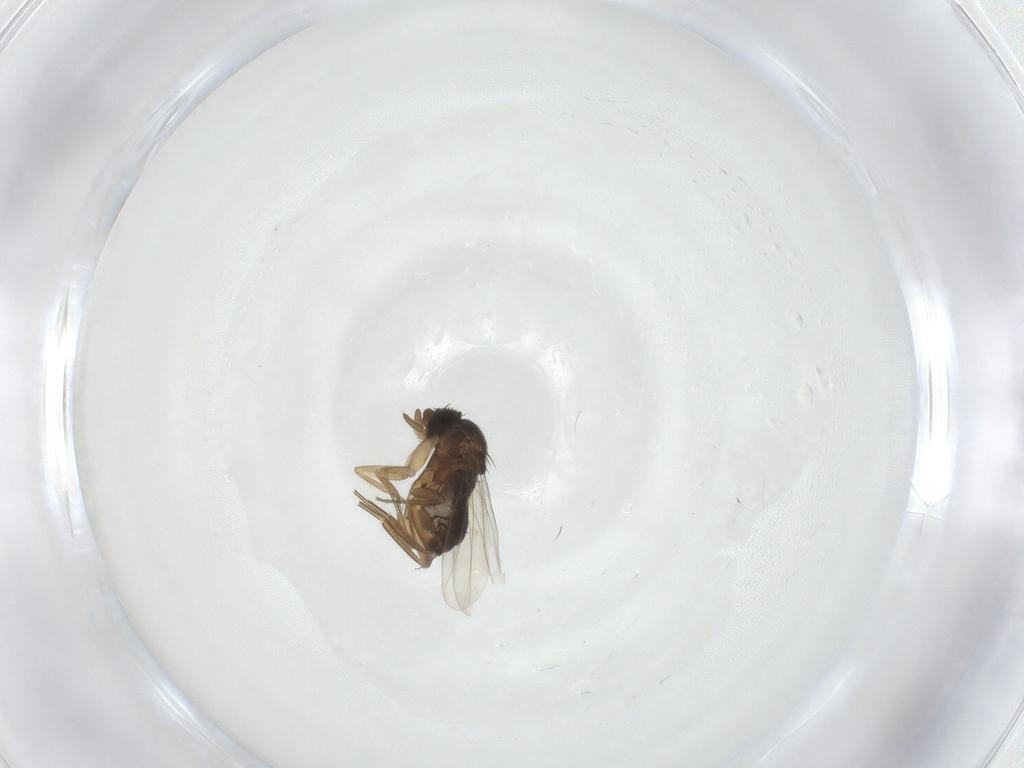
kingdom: Animalia
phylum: Arthropoda
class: Insecta
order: Diptera
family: Phoridae
